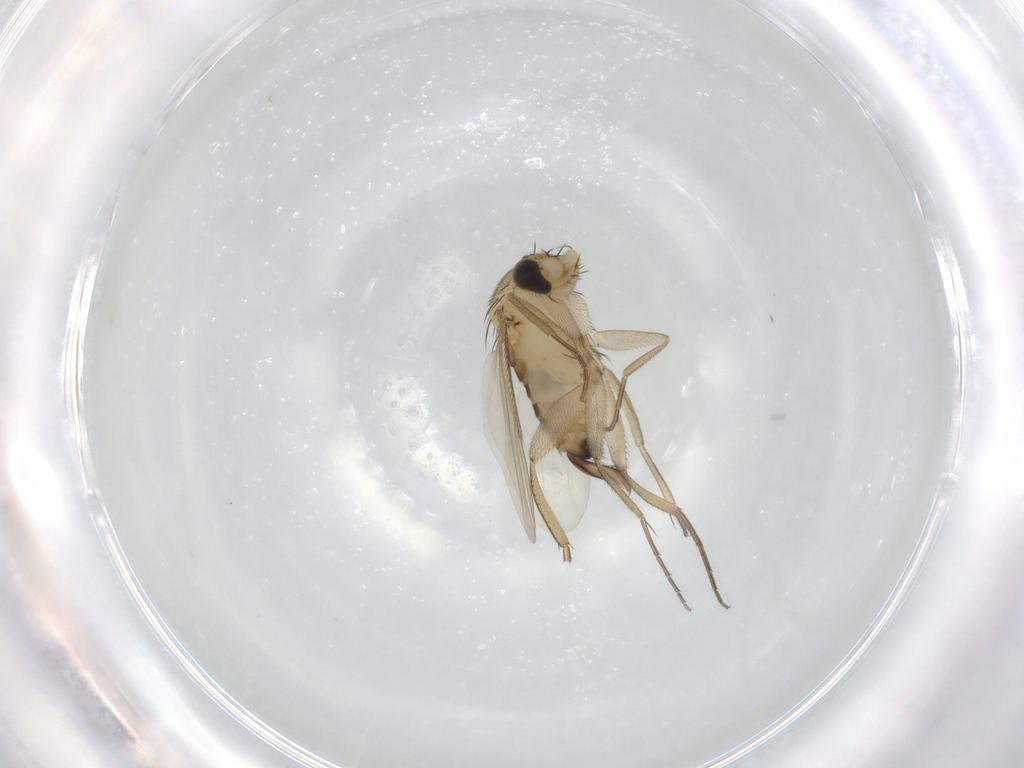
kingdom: Animalia
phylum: Arthropoda
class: Insecta
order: Diptera
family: Phoridae
